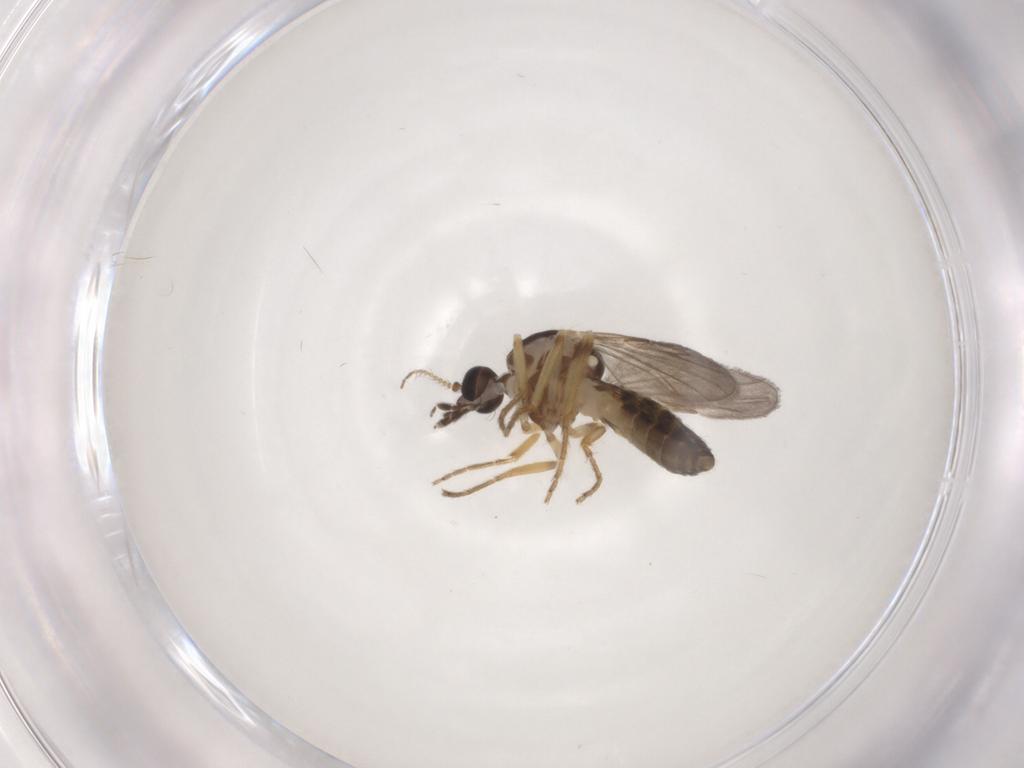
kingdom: Animalia
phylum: Arthropoda
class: Insecta
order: Diptera
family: Ceratopogonidae
